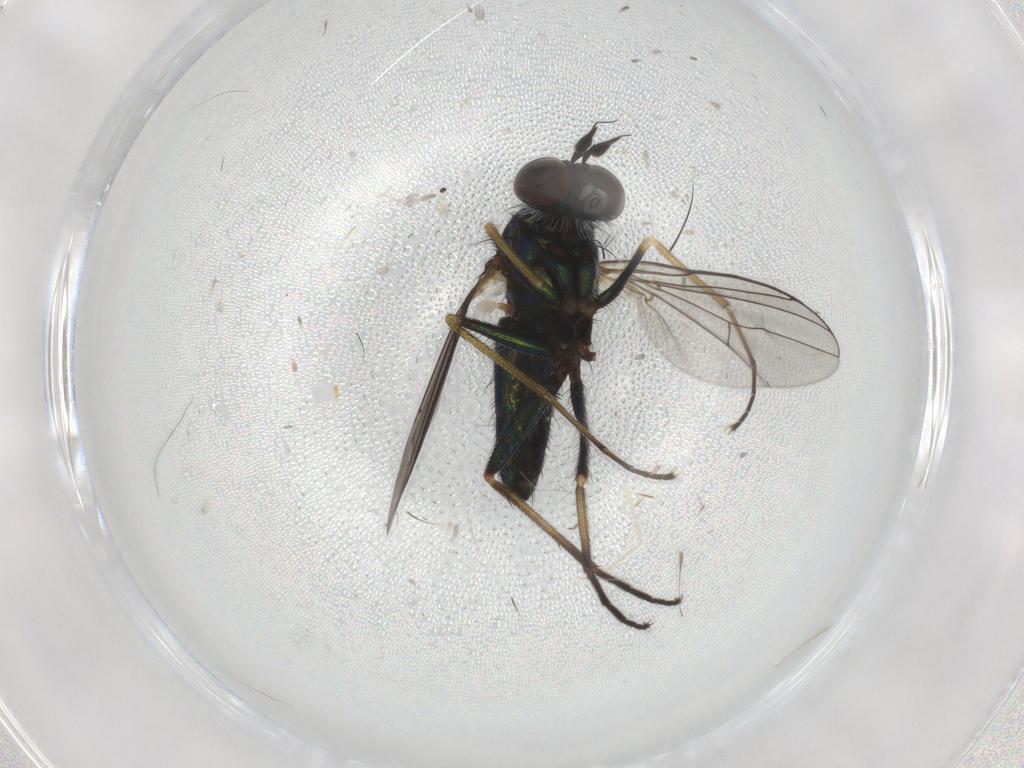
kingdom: Animalia
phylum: Arthropoda
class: Insecta
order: Diptera
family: Dolichopodidae
